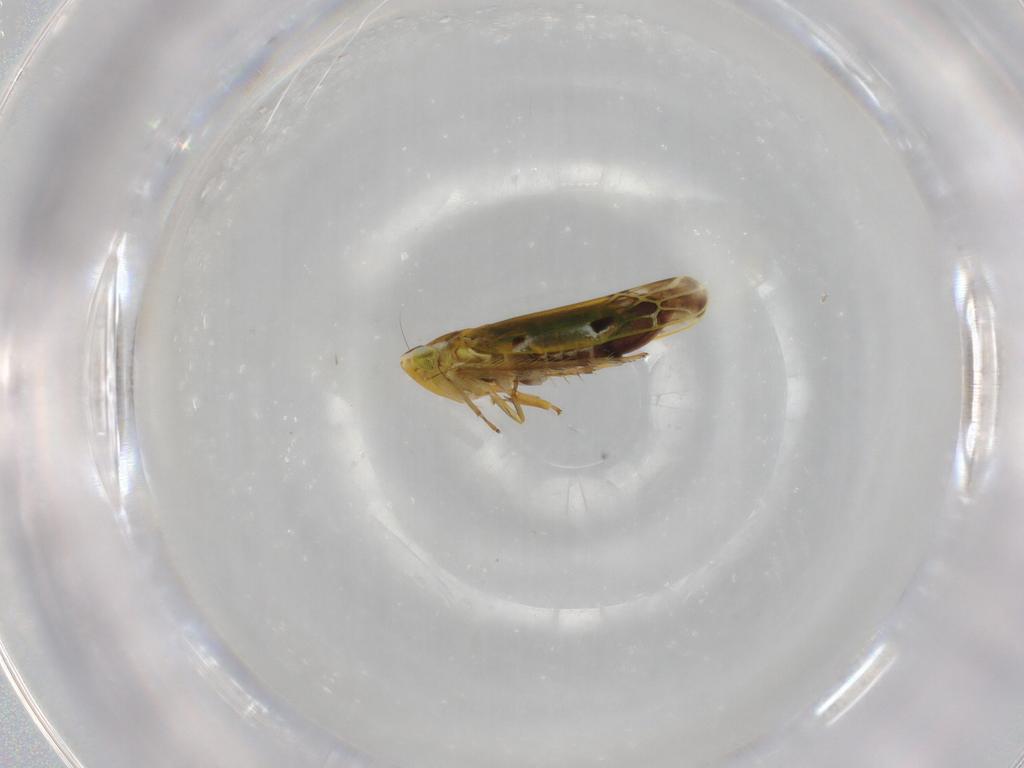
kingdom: Animalia
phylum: Arthropoda
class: Insecta
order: Hemiptera
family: Cicadellidae
